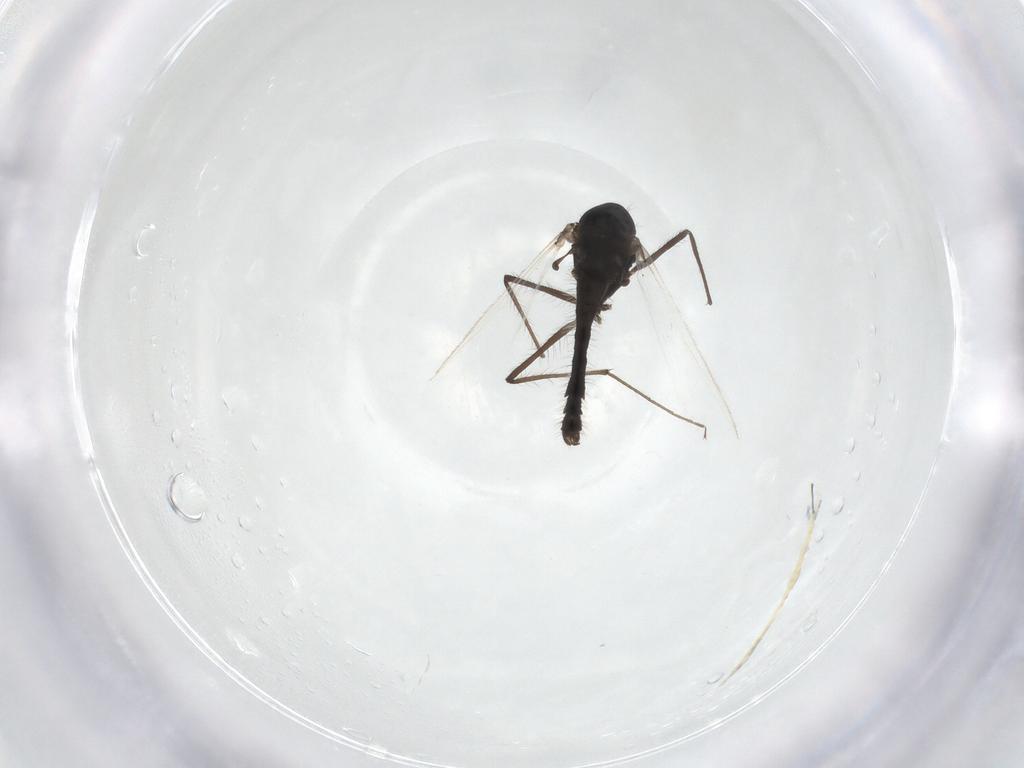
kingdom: Animalia
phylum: Arthropoda
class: Insecta
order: Diptera
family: Chironomidae
